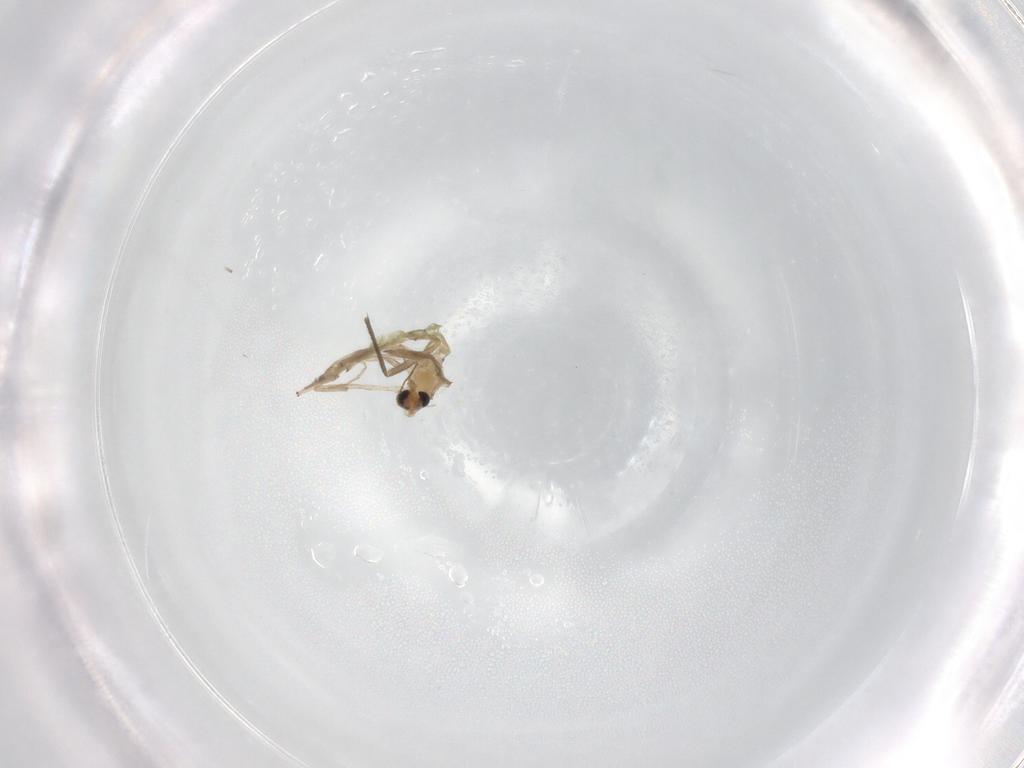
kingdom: Animalia
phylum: Arthropoda
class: Insecta
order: Diptera
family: Chironomidae
